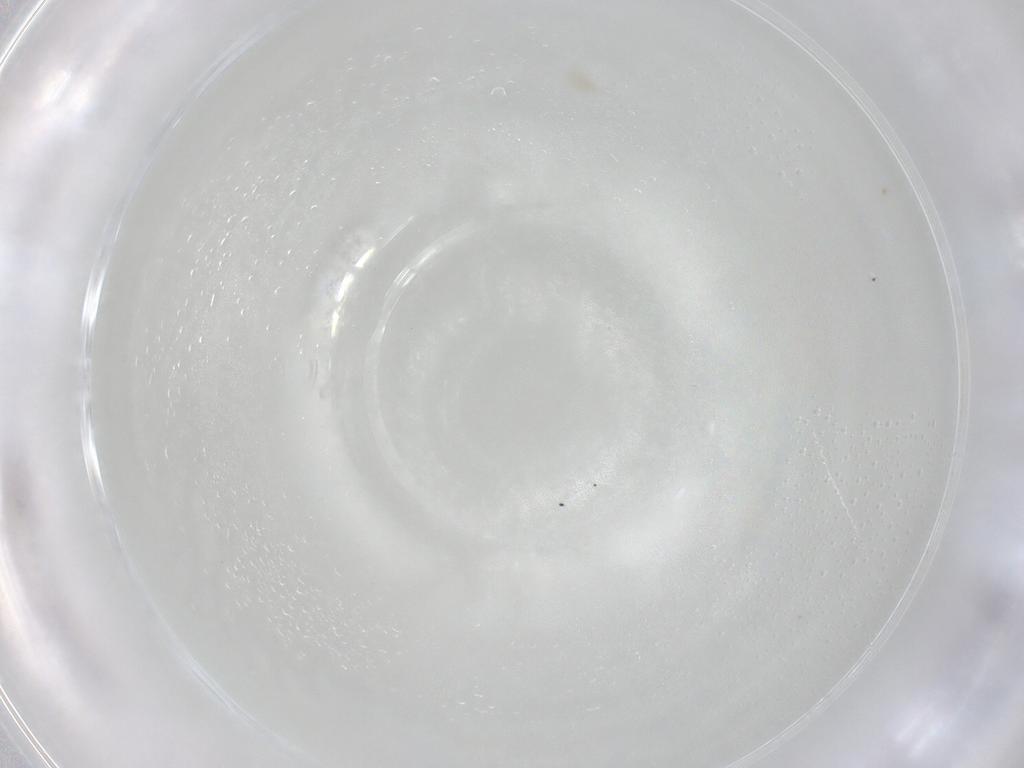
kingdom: Animalia
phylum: Arthropoda
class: Arachnida
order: Trombidiformes
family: Eupodidae
